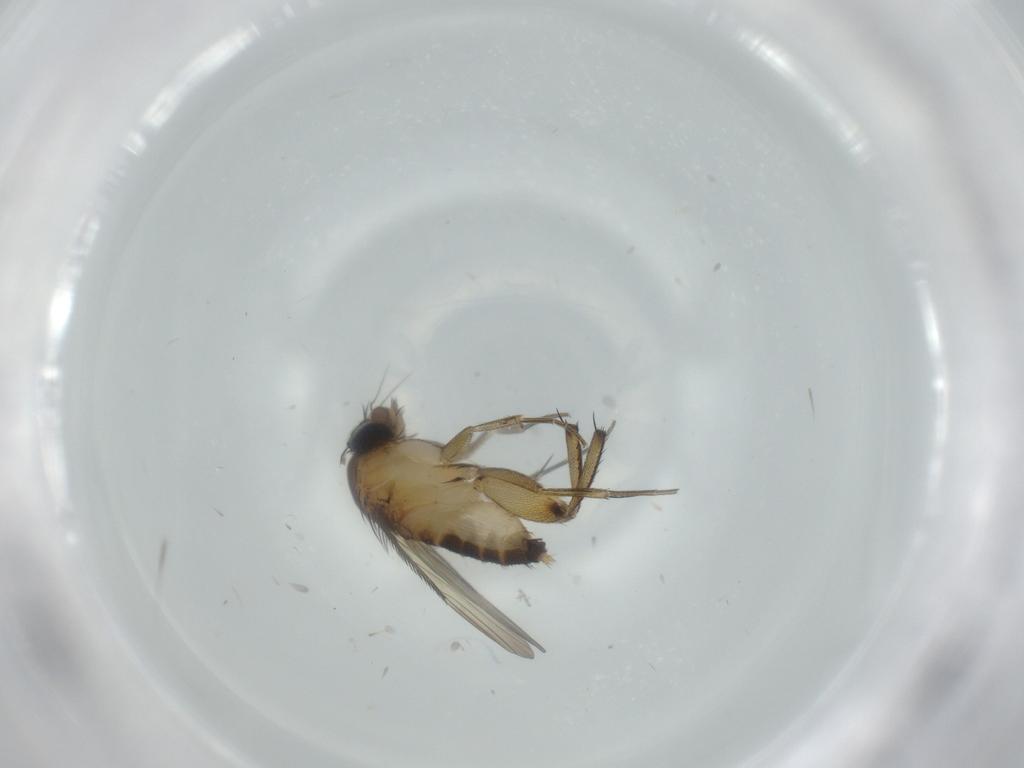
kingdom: Animalia
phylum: Arthropoda
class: Insecta
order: Diptera
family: Phoridae
